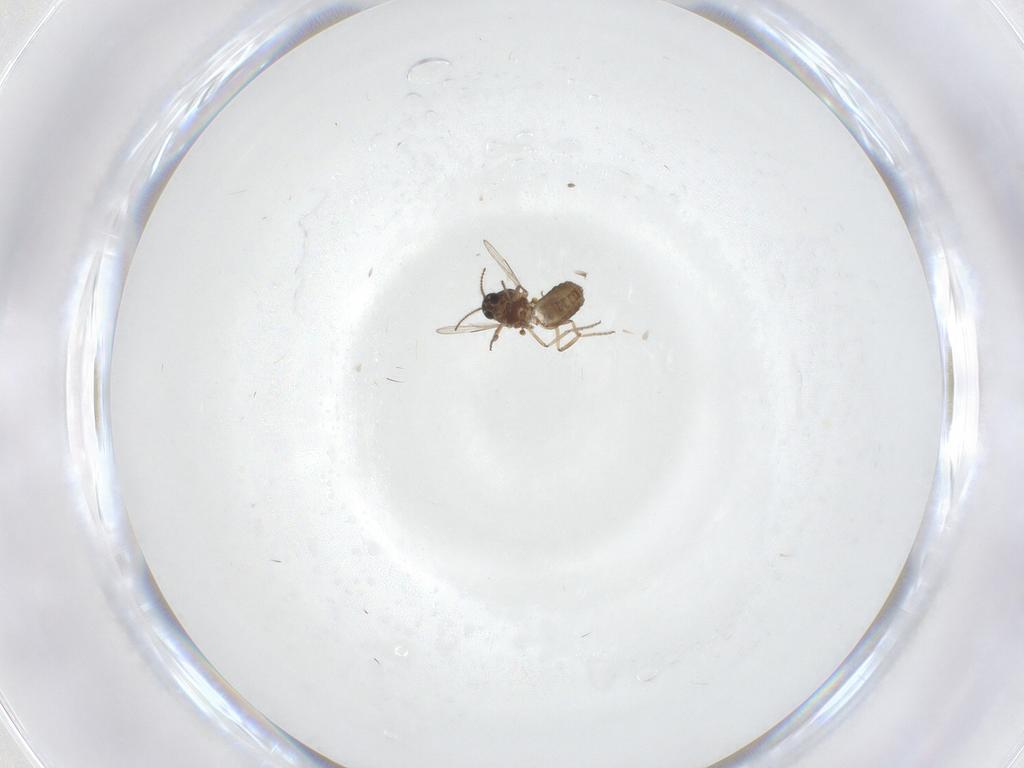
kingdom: Animalia
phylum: Arthropoda
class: Insecta
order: Diptera
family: Ceratopogonidae
